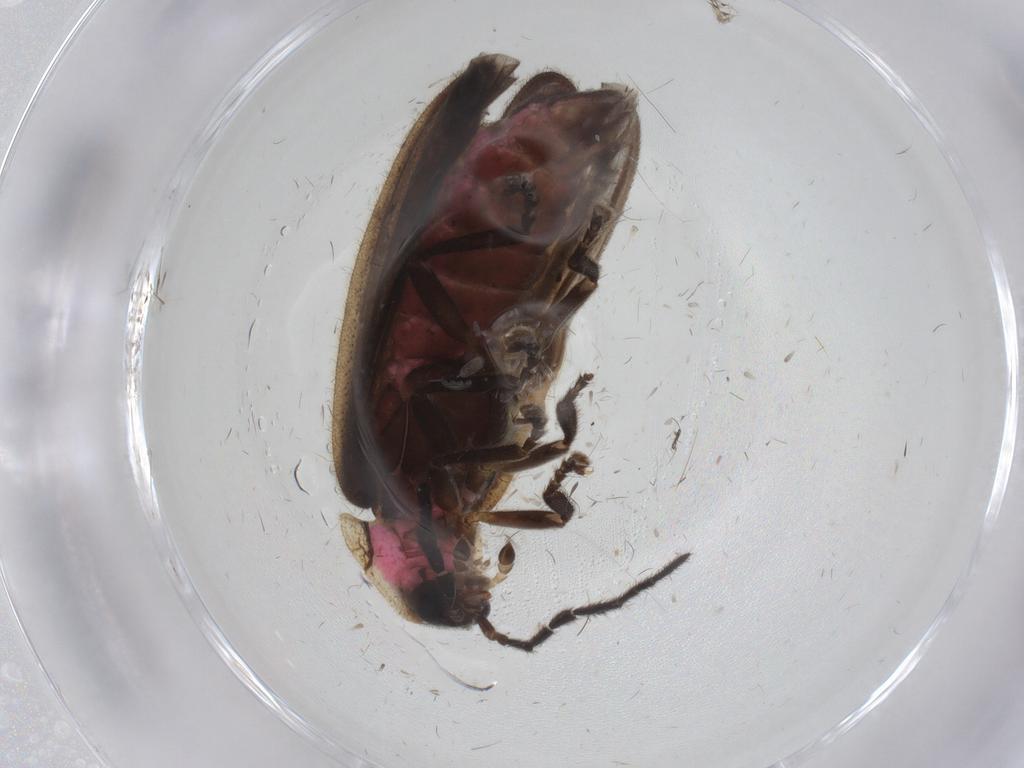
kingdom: Animalia
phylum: Arthropoda
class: Insecta
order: Coleoptera
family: Lampyridae
